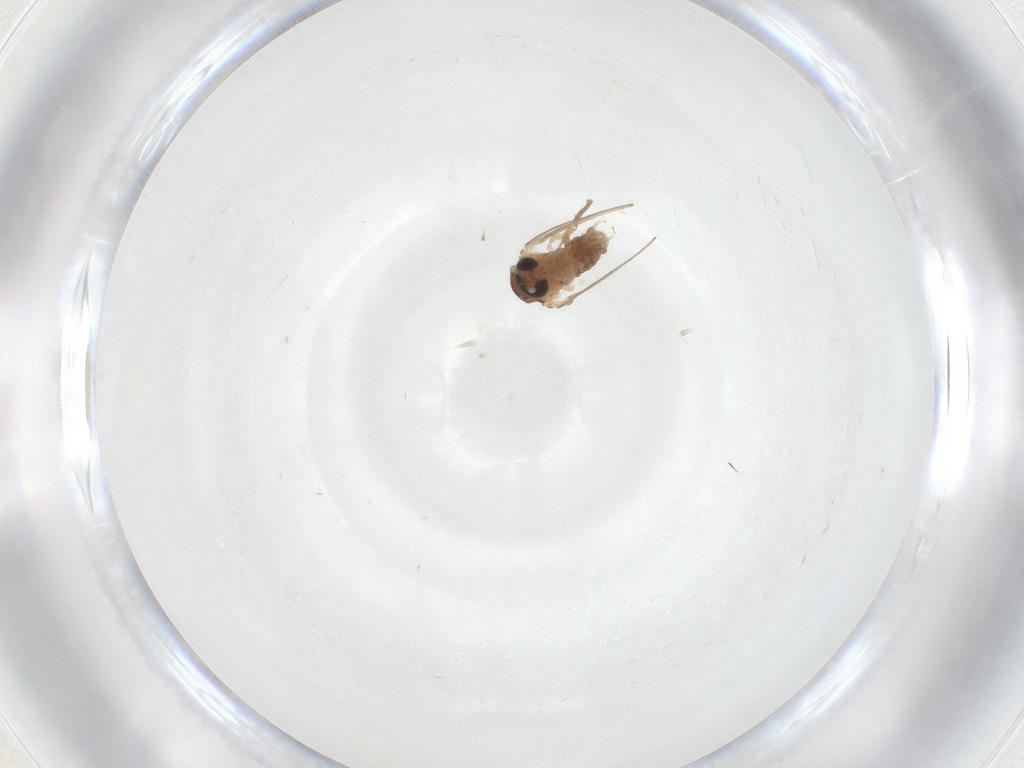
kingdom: Animalia
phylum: Arthropoda
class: Insecta
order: Diptera
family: Psychodidae
